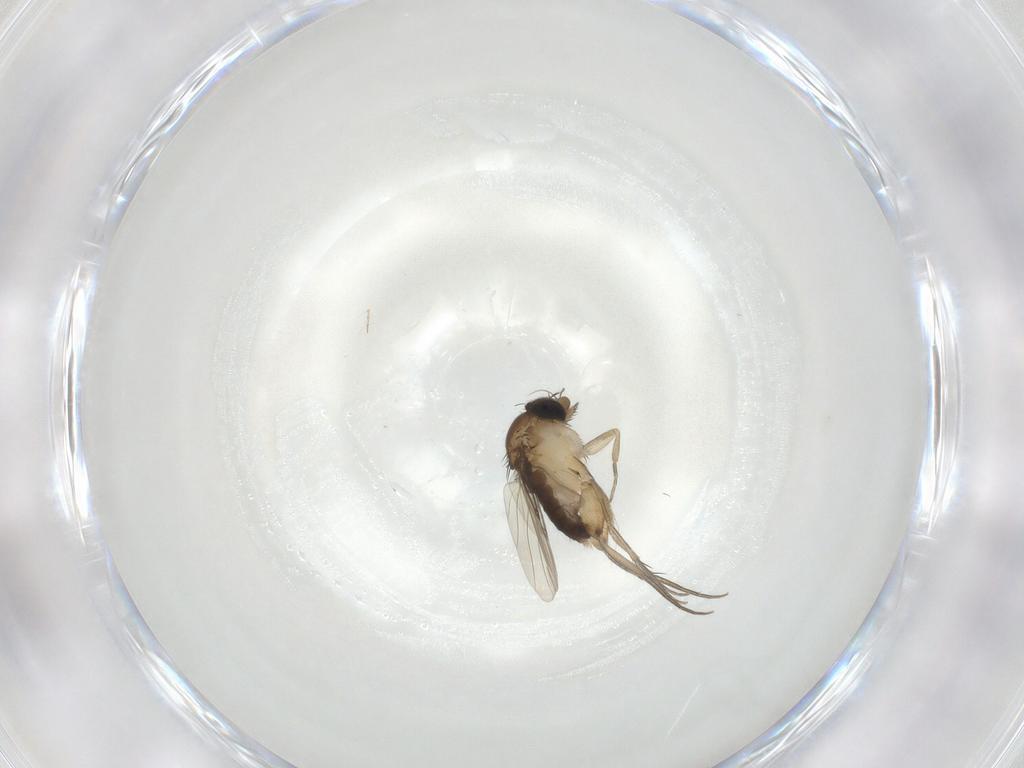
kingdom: Animalia
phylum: Arthropoda
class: Insecta
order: Diptera
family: Phoridae
